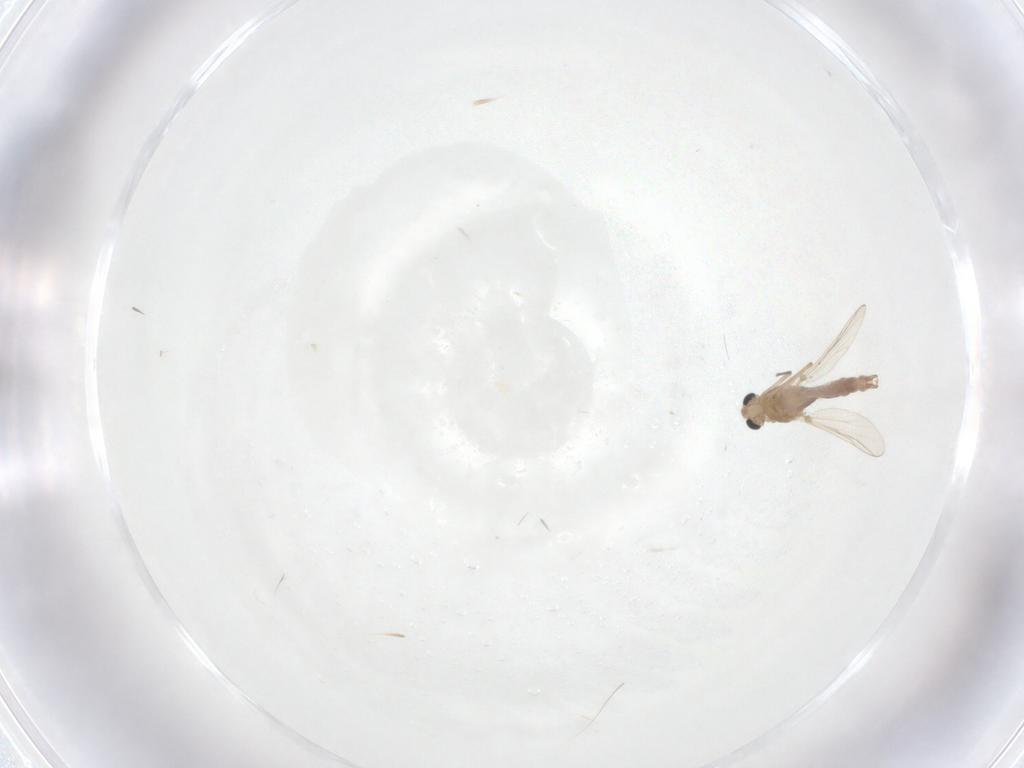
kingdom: Animalia
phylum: Arthropoda
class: Insecta
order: Diptera
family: Chironomidae
